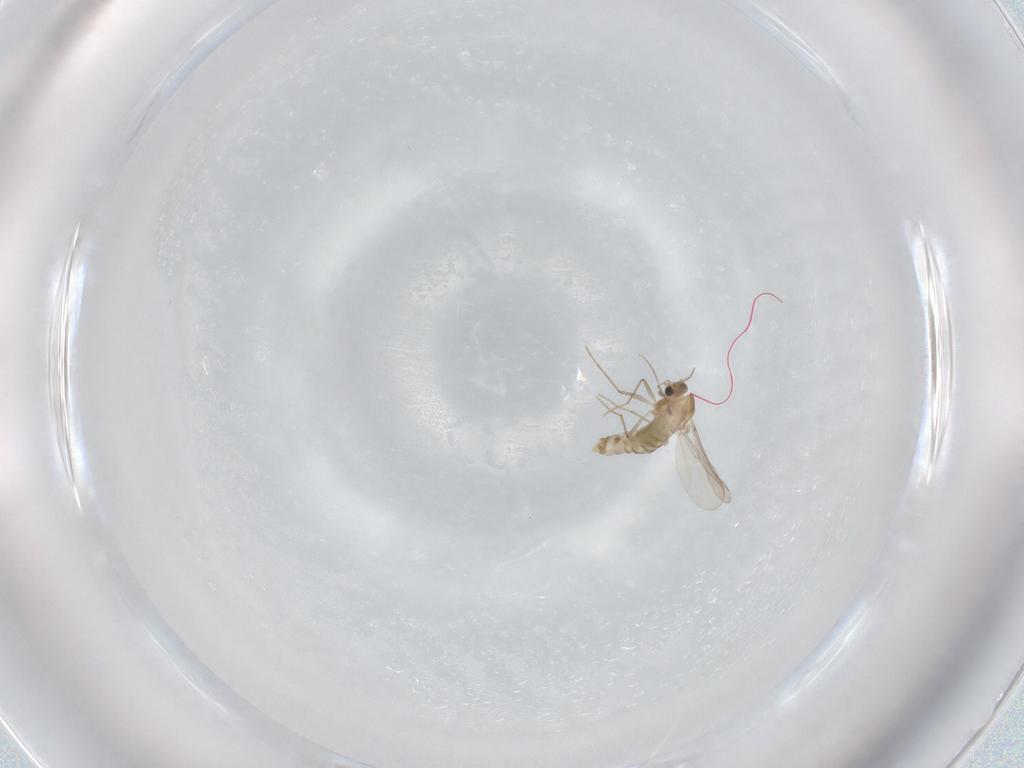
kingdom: Animalia
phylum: Arthropoda
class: Insecta
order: Diptera
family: Chironomidae
